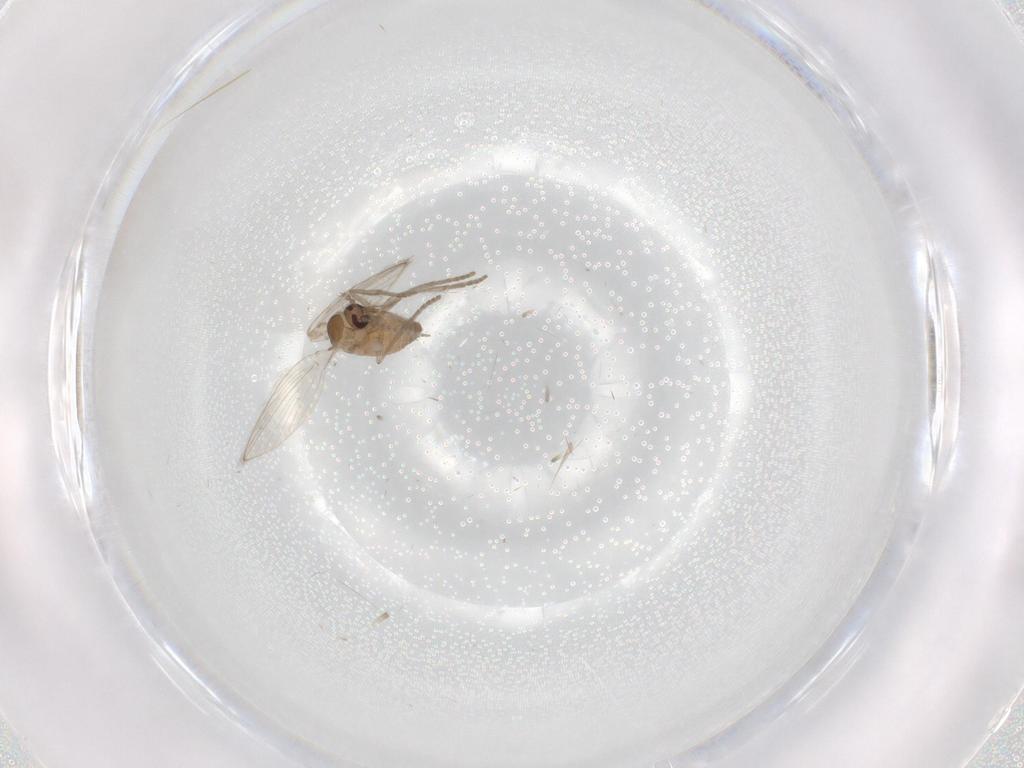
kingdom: Animalia
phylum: Arthropoda
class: Insecta
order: Diptera
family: Psychodidae
